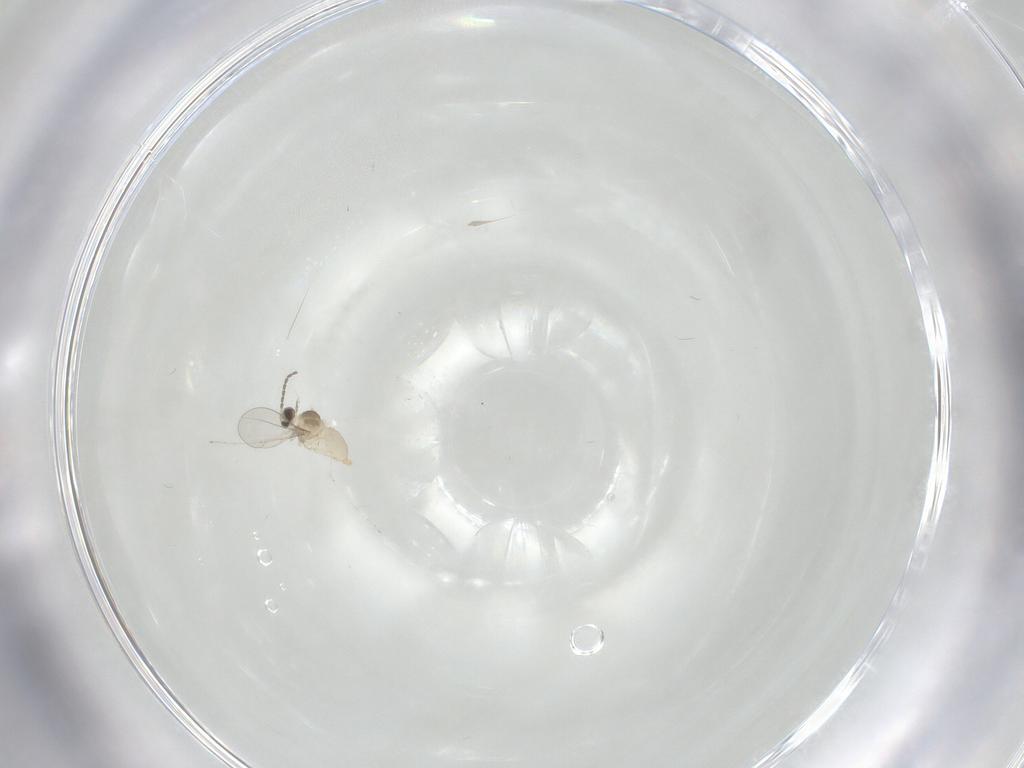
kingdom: Animalia
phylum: Arthropoda
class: Insecta
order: Diptera
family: Cecidomyiidae
